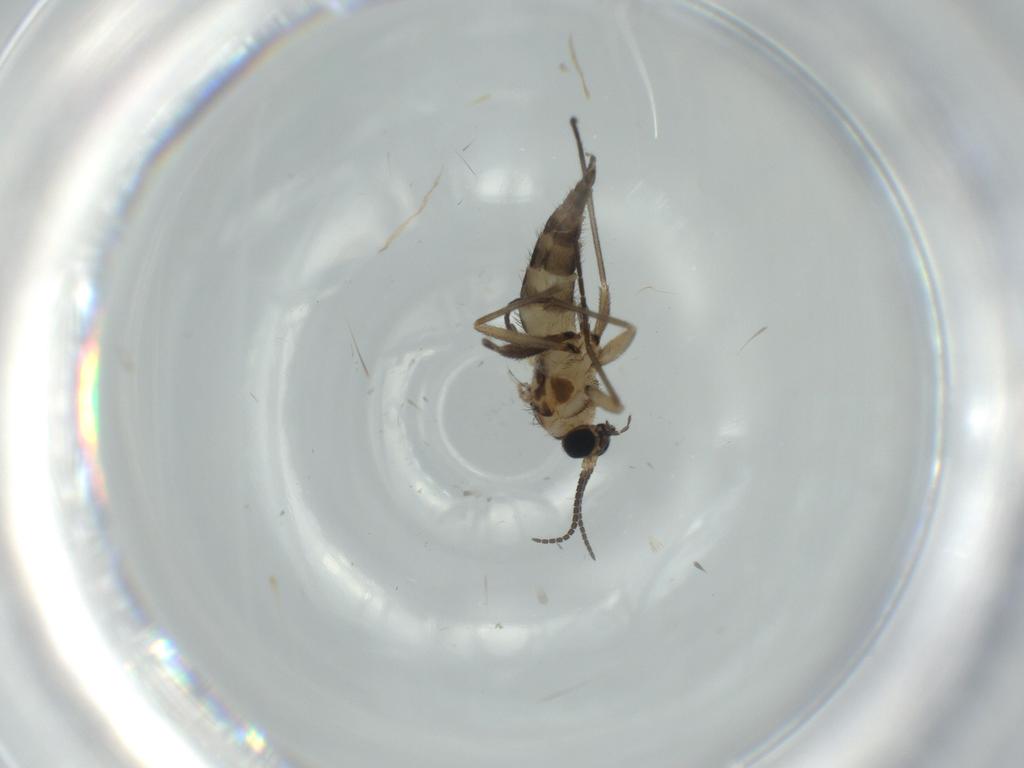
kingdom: Animalia
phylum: Arthropoda
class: Insecta
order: Diptera
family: Sciaridae
